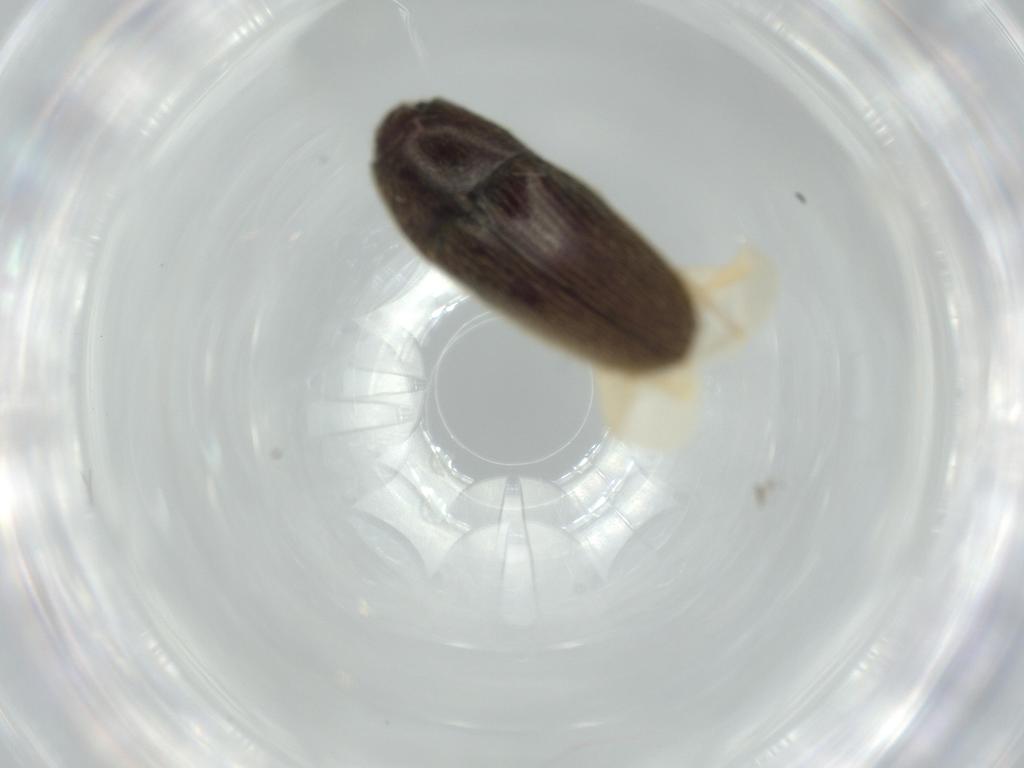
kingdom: Animalia
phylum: Arthropoda
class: Insecta
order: Coleoptera
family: Throscidae
